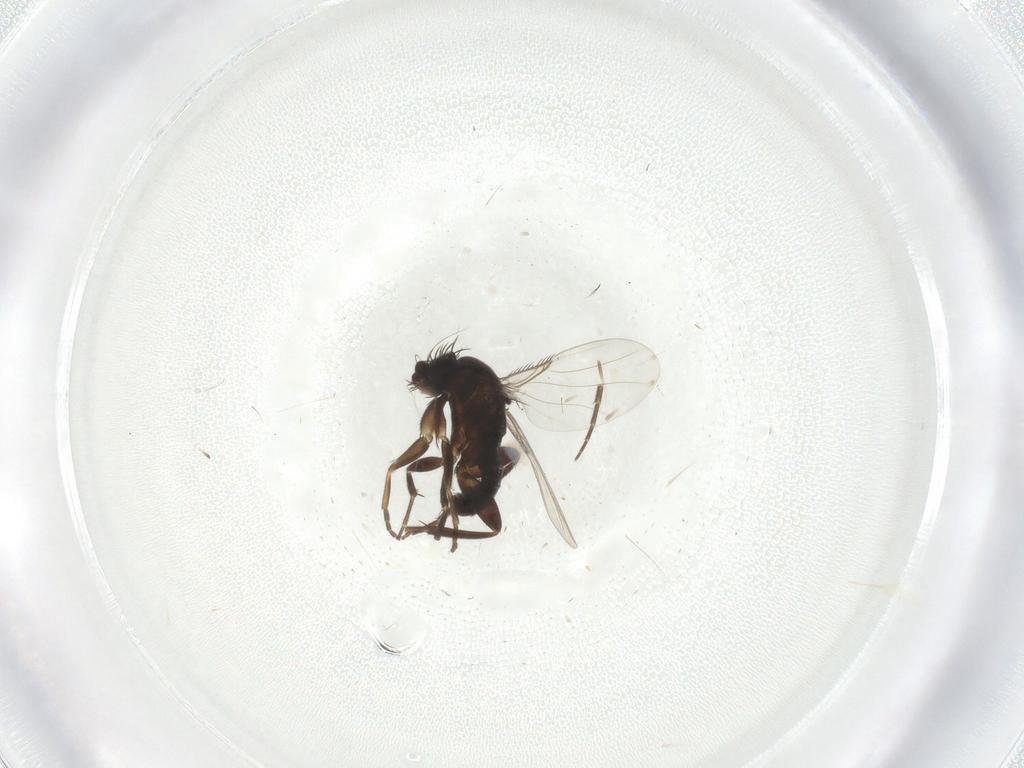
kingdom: Animalia
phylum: Arthropoda
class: Insecta
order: Diptera
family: Phoridae
